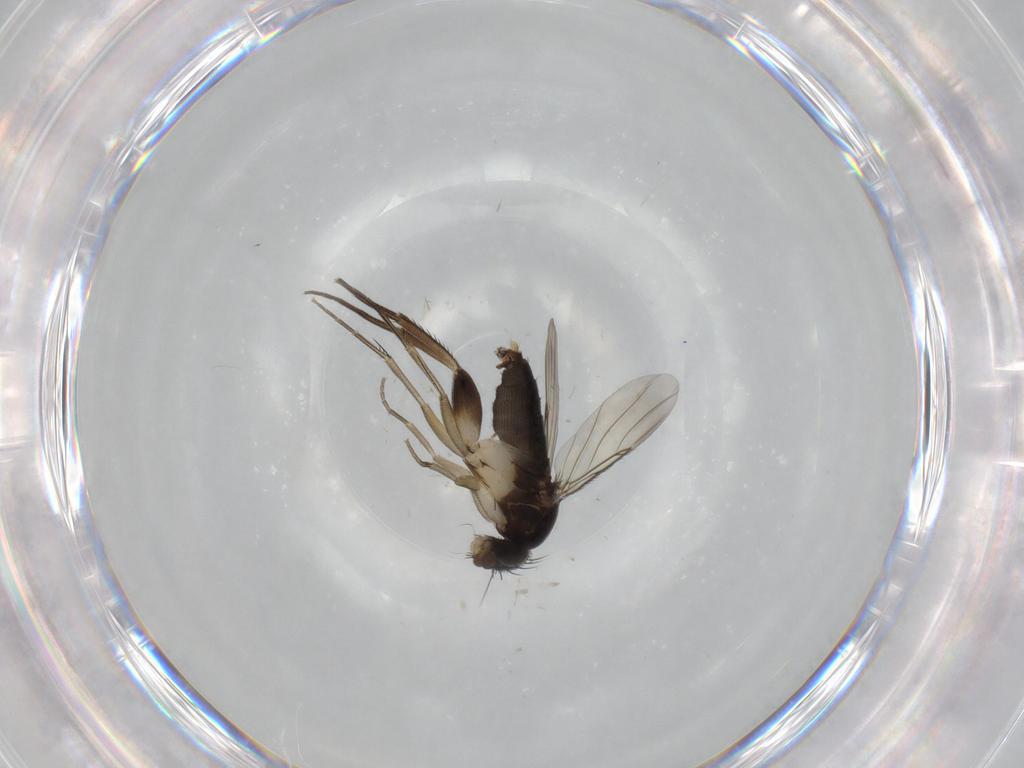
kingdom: Animalia
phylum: Arthropoda
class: Insecta
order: Diptera
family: Phoridae
